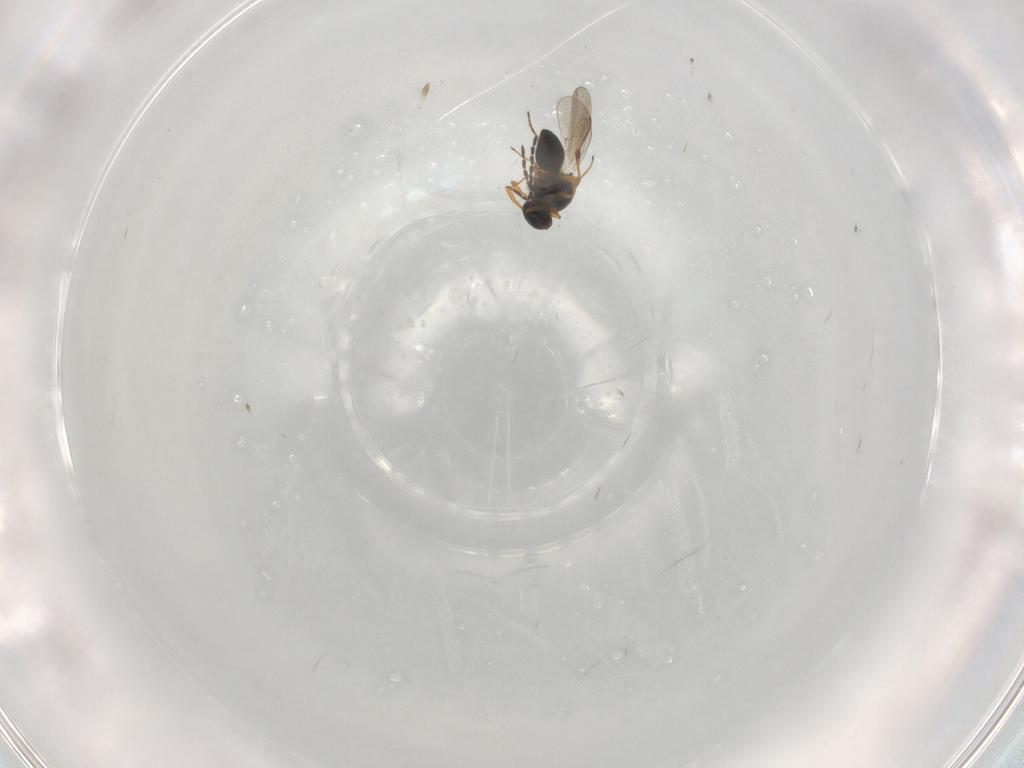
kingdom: Animalia
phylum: Arthropoda
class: Insecta
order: Hymenoptera
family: Platygastridae
